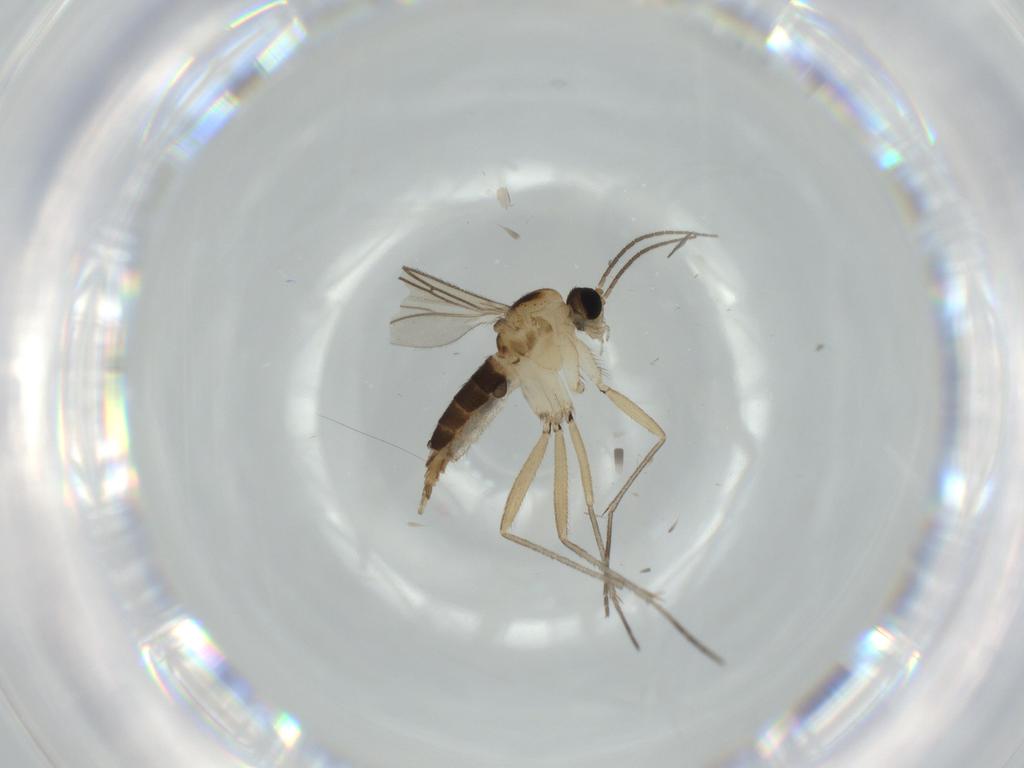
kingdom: Animalia
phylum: Arthropoda
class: Insecta
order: Diptera
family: Sciaridae
